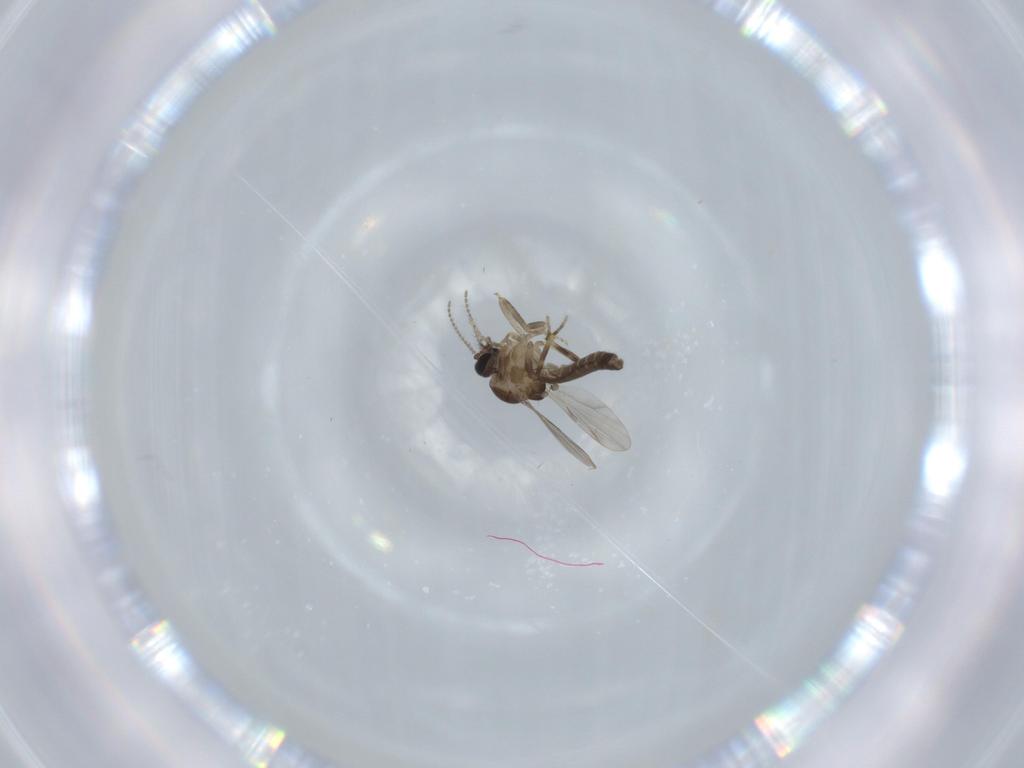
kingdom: Animalia
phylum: Arthropoda
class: Insecta
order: Diptera
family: Ceratopogonidae
